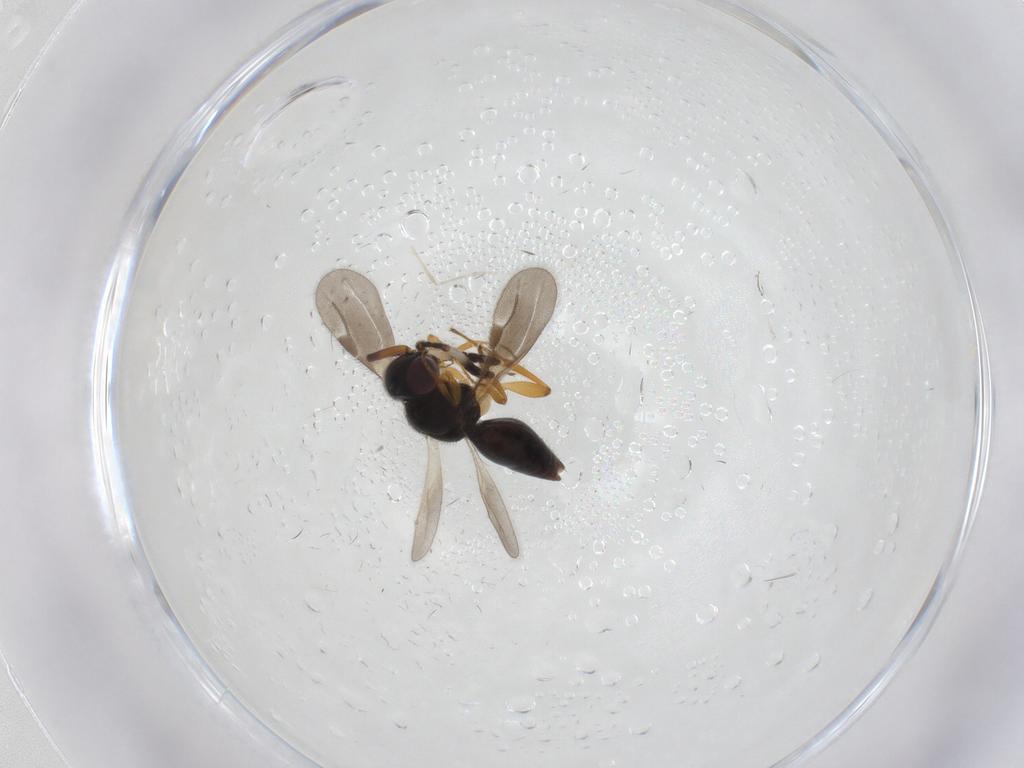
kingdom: Animalia
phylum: Arthropoda
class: Insecta
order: Hymenoptera
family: Megaspilidae
